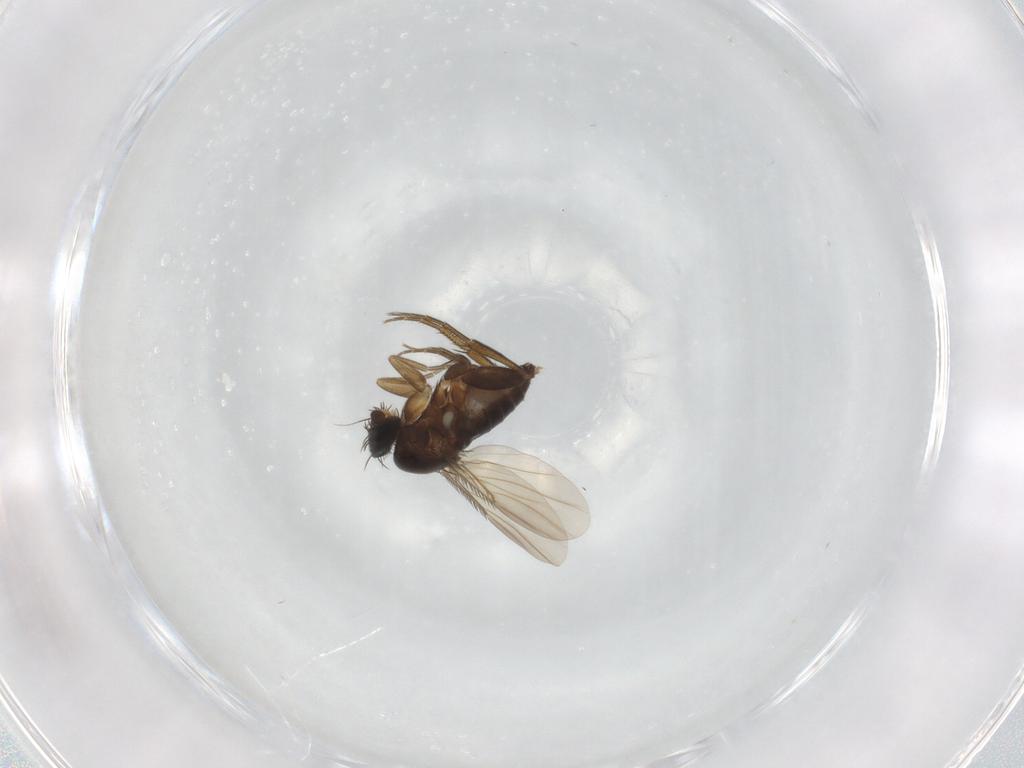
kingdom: Animalia
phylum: Arthropoda
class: Insecta
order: Diptera
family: Phoridae
